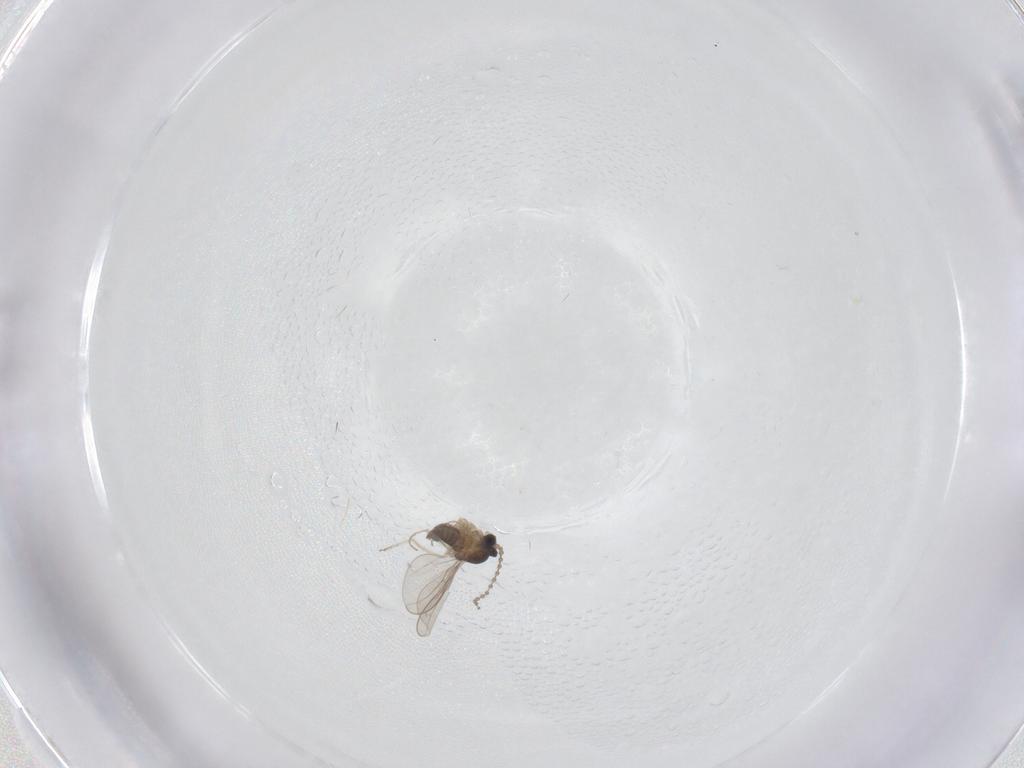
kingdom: Animalia
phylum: Arthropoda
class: Insecta
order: Diptera
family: Cecidomyiidae
